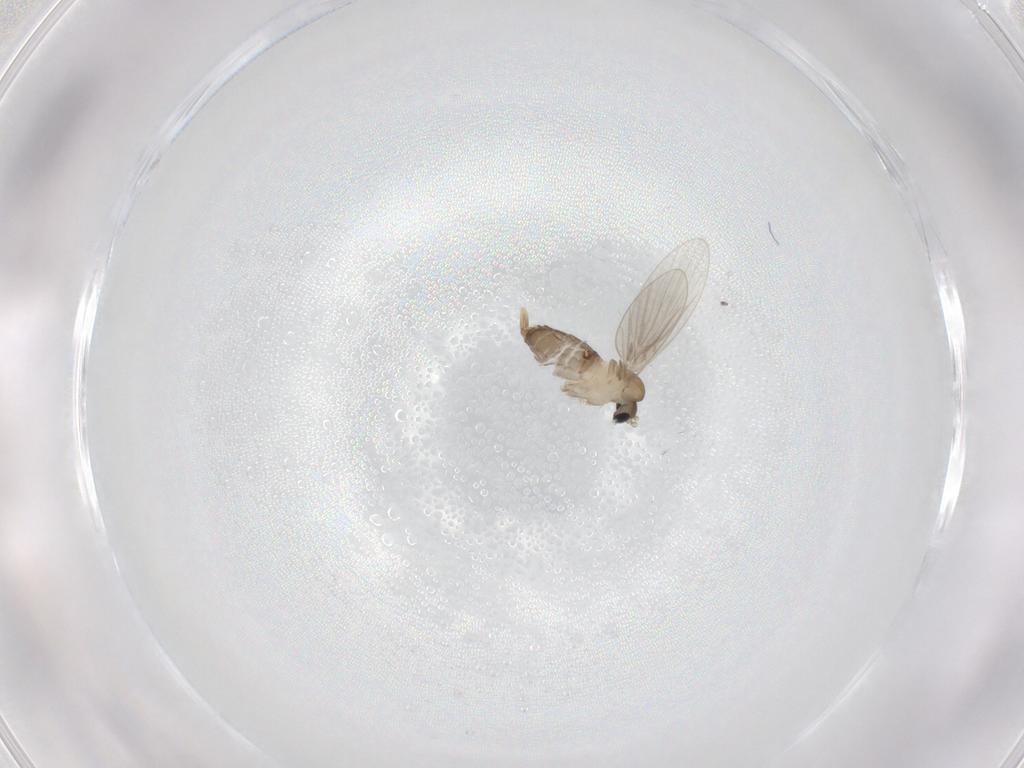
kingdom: Animalia
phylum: Arthropoda
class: Insecta
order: Diptera
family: Psychodidae
